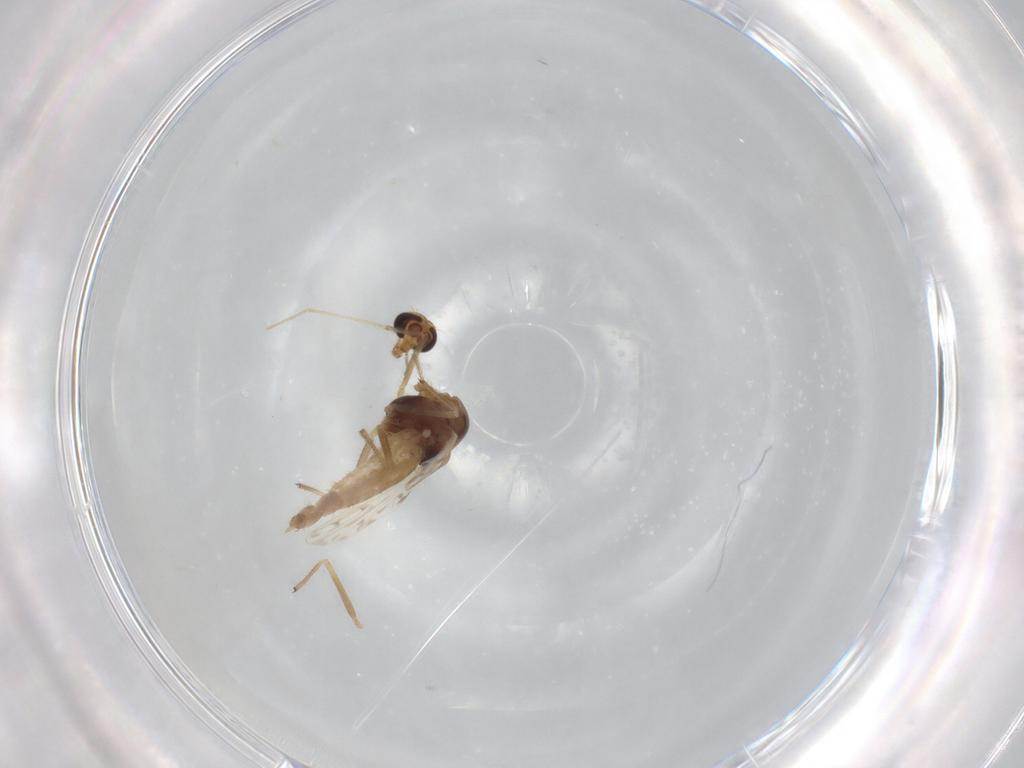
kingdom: Animalia
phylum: Arthropoda
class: Insecta
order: Diptera
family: Chironomidae
